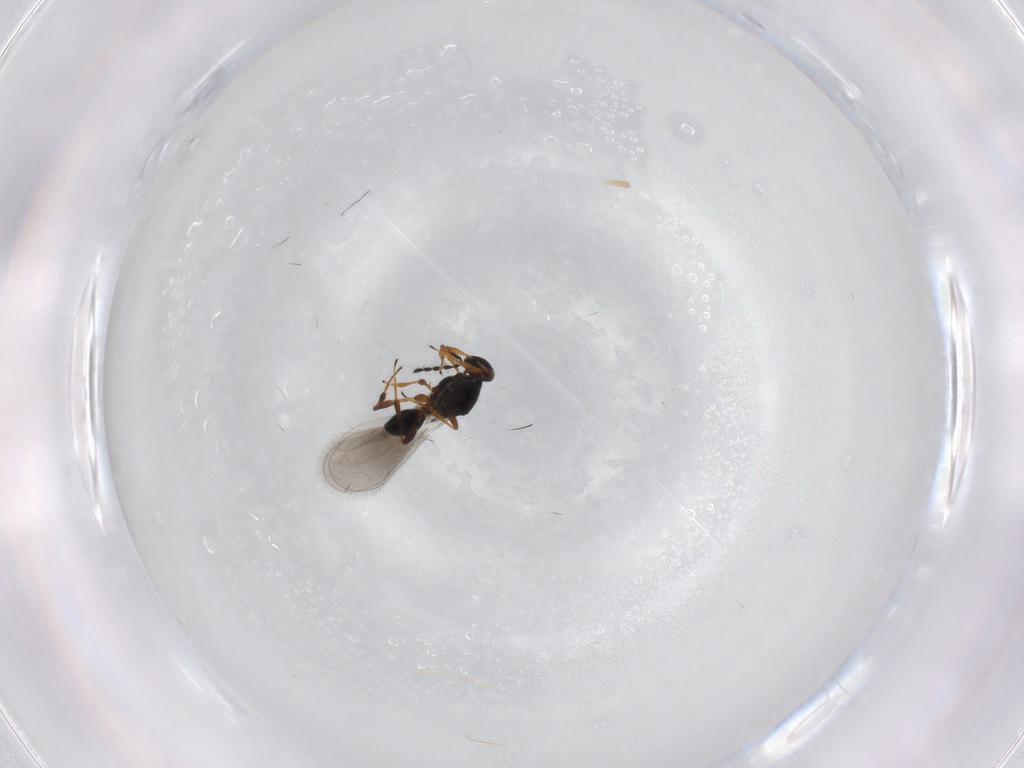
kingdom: Animalia
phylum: Arthropoda
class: Insecta
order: Hymenoptera
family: Platygastridae
